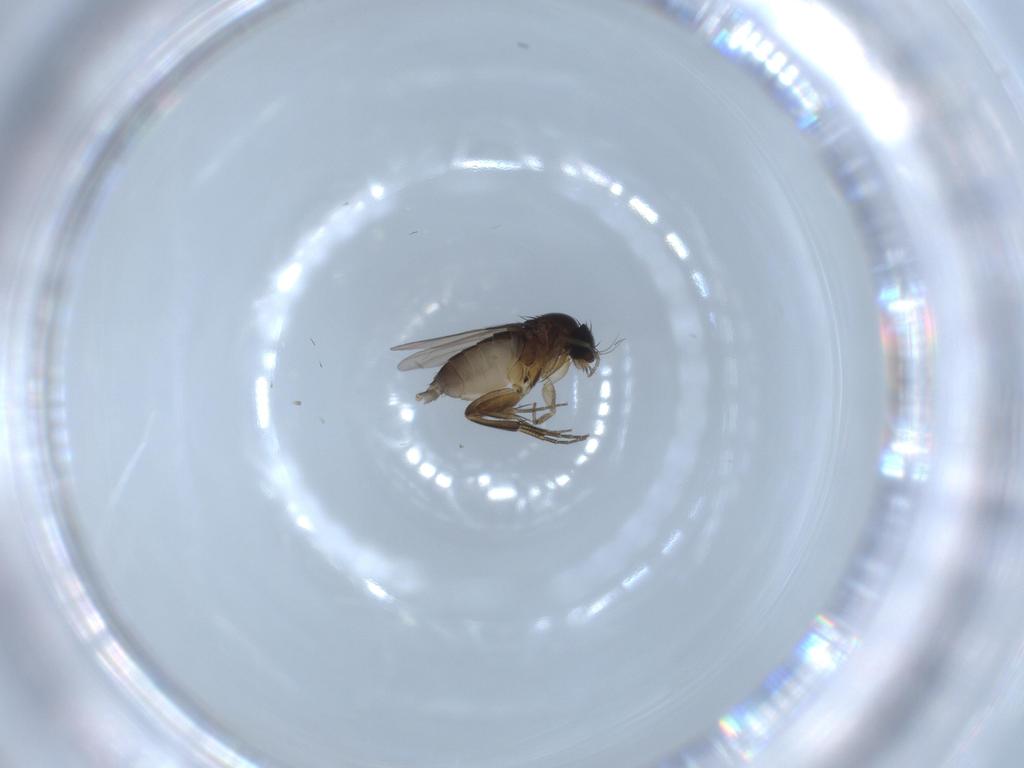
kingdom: Animalia
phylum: Arthropoda
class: Insecta
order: Diptera
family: Phoridae
